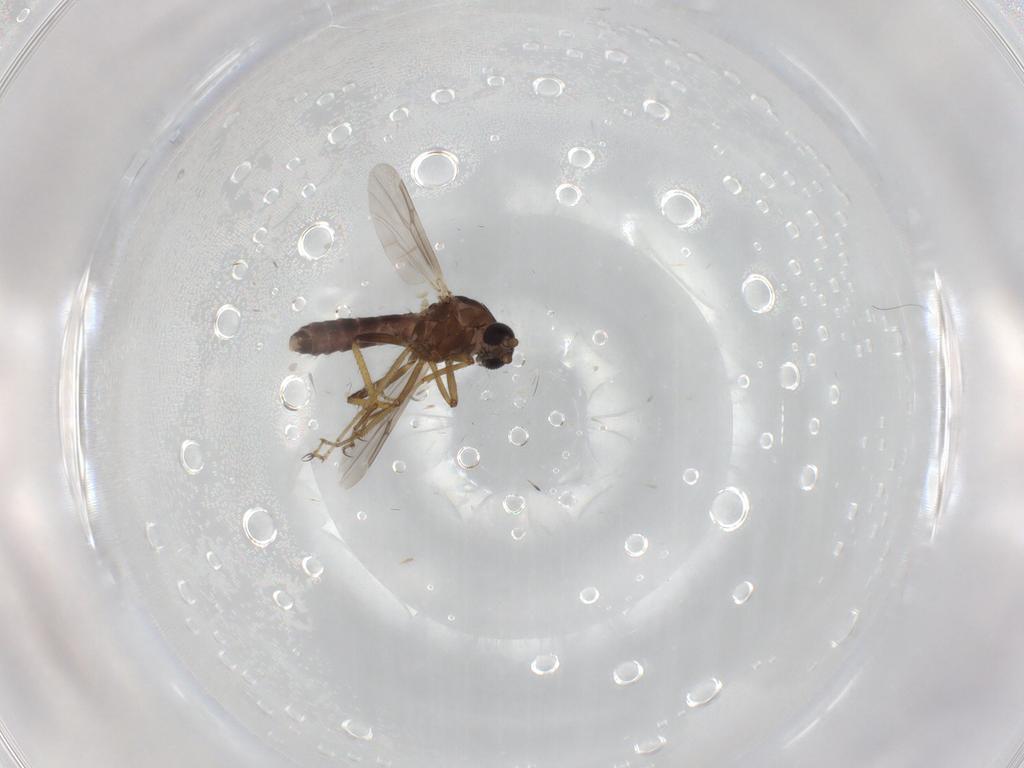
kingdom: Animalia
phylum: Arthropoda
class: Insecta
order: Diptera
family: Ceratopogonidae
